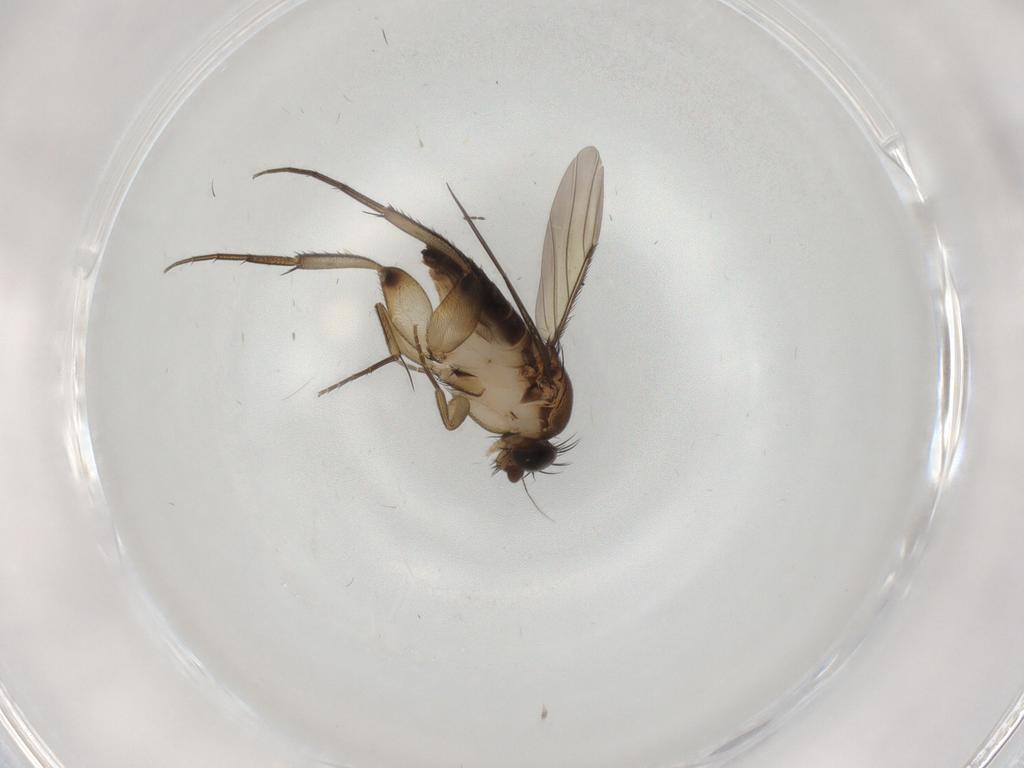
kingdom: Animalia
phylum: Arthropoda
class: Insecta
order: Diptera
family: Phoridae
